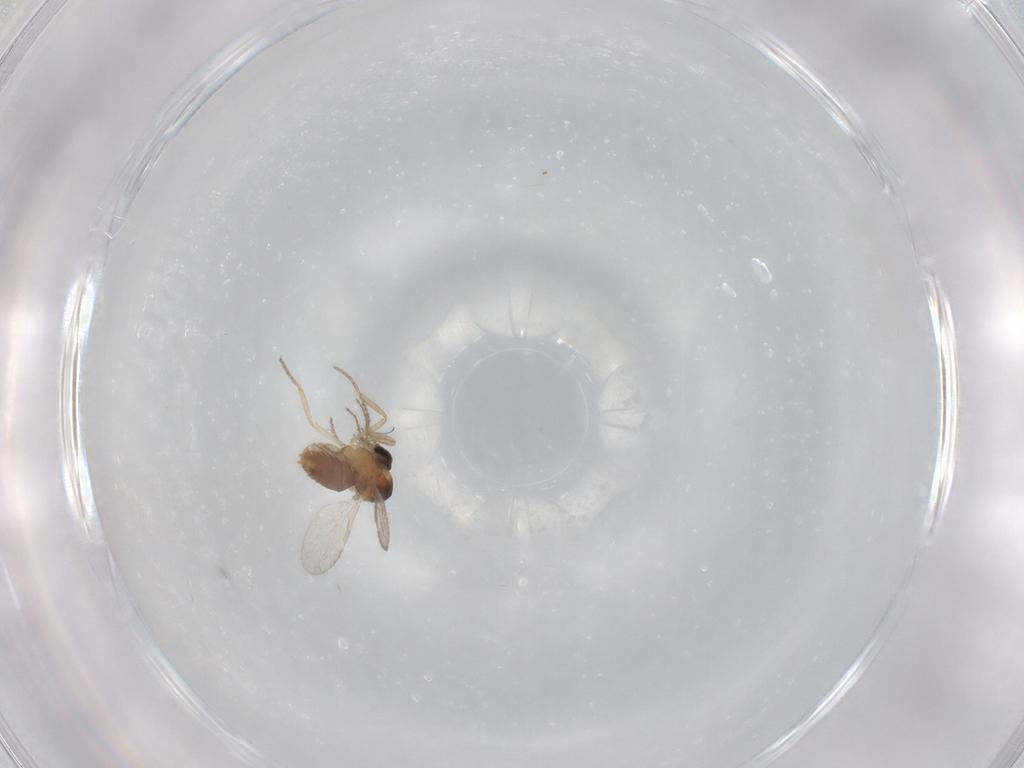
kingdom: Animalia
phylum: Arthropoda
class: Insecta
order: Diptera
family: Ceratopogonidae
